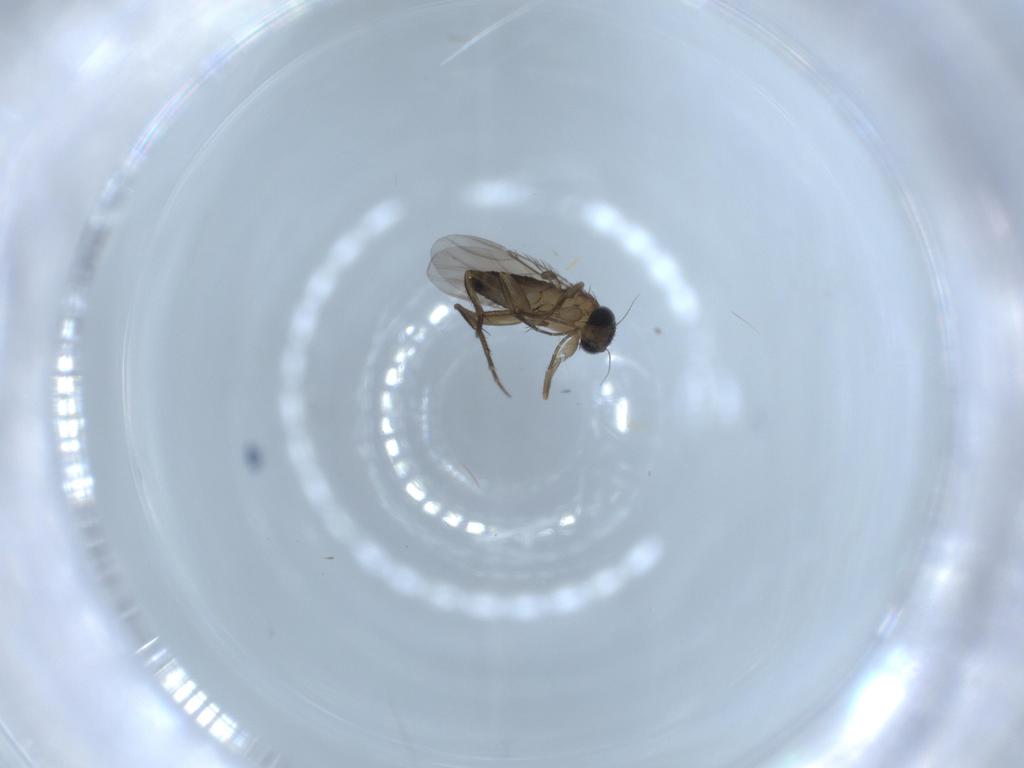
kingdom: Animalia
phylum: Arthropoda
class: Insecta
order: Diptera
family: Phoridae
